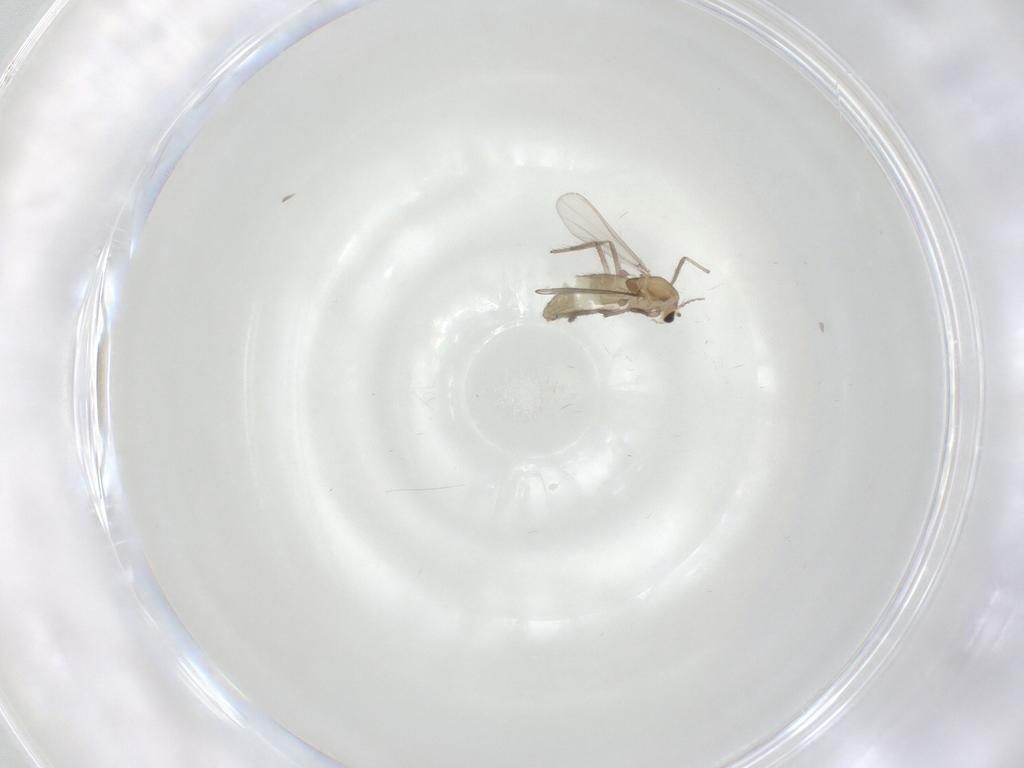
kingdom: Animalia
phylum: Arthropoda
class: Insecta
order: Diptera
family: Chironomidae
